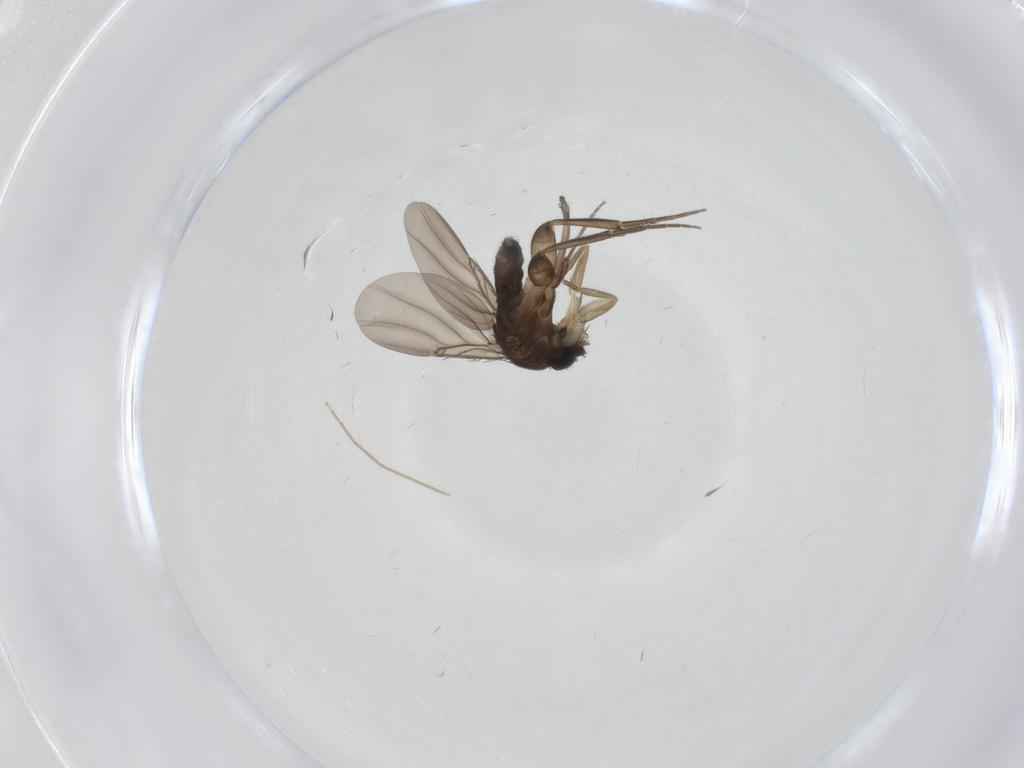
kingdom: Animalia
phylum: Arthropoda
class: Insecta
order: Diptera
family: Phoridae
